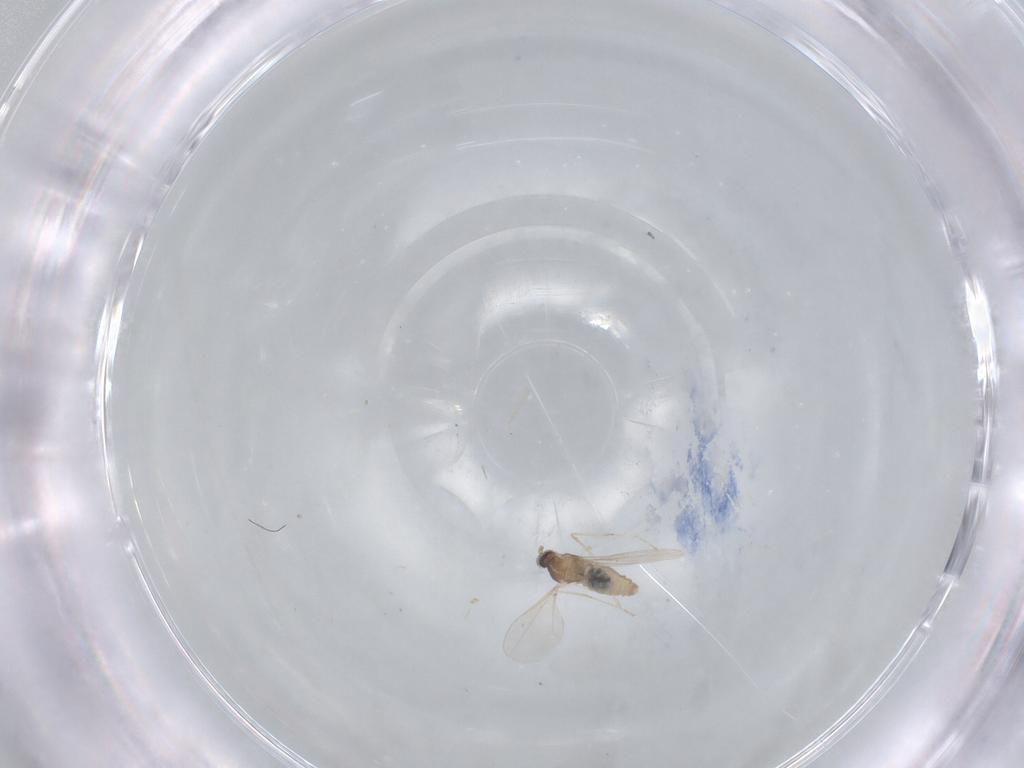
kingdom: Animalia
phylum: Arthropoda
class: Insecta
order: Diptera
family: Cecidomyiidae
